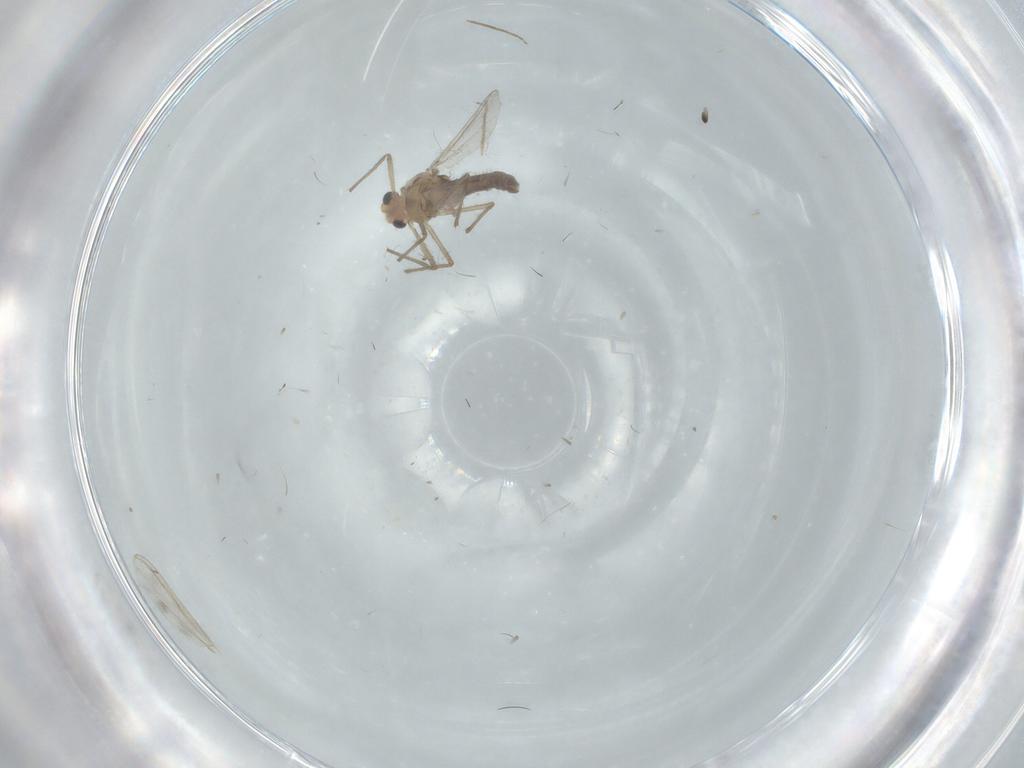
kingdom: Animalia
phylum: Arthropoda
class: Insecta
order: Diptera
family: Chironomidae
